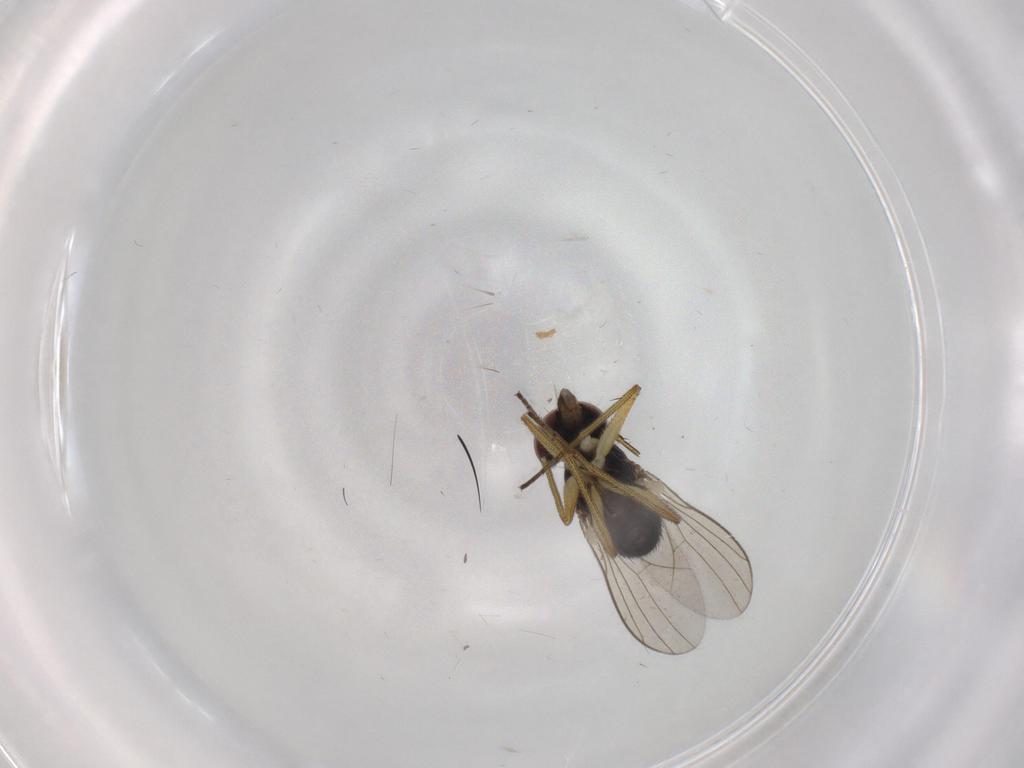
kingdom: Animalia
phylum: Arthropoda
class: Insecta
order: Diptera
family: Dolichopodidae
